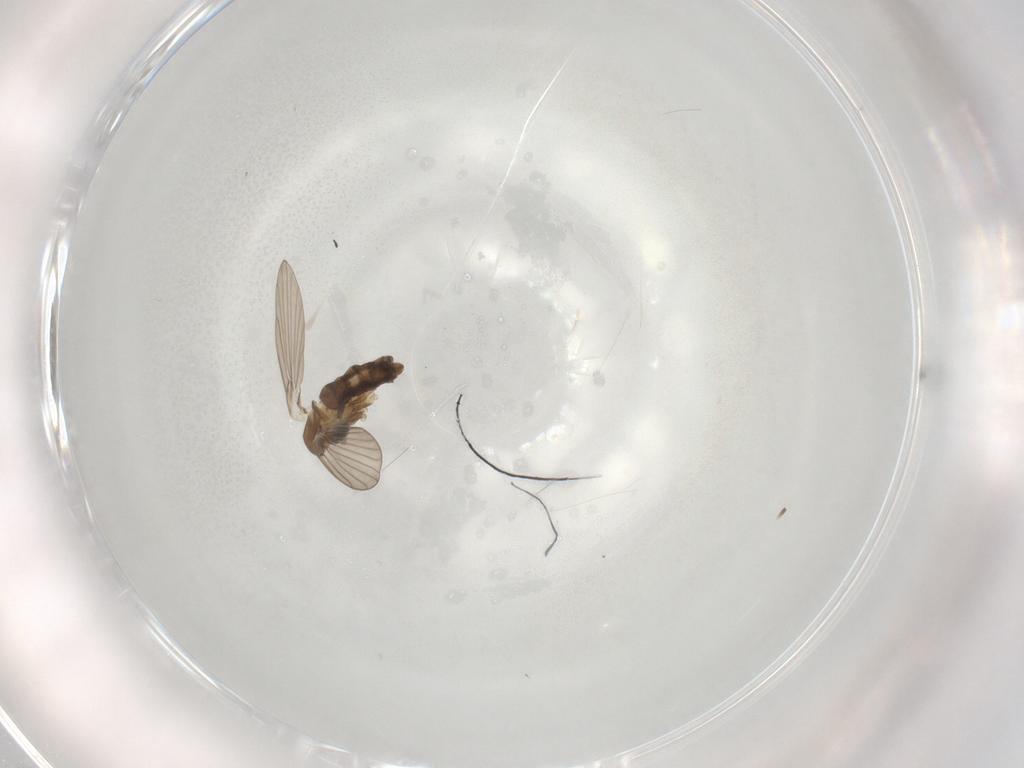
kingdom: Animalia
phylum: Arthropoda
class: Insecta
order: Diptera
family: Psychodidae
